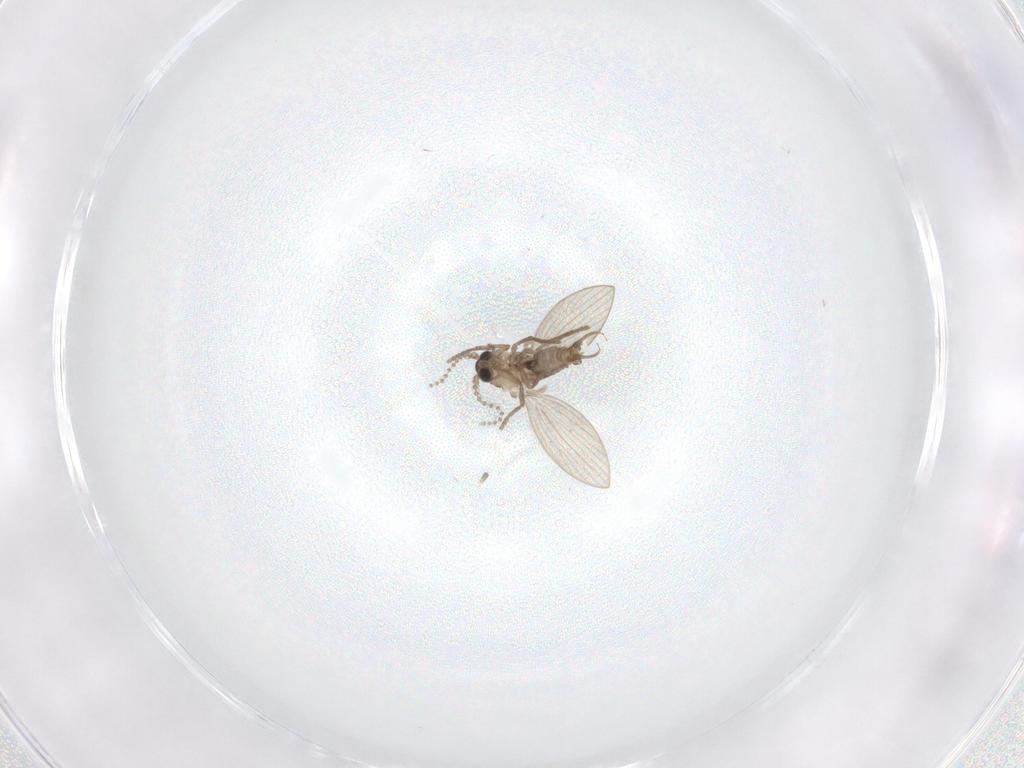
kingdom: Animalia
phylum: Arthropoda
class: Insecta
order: Diptera
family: Psychodidae
